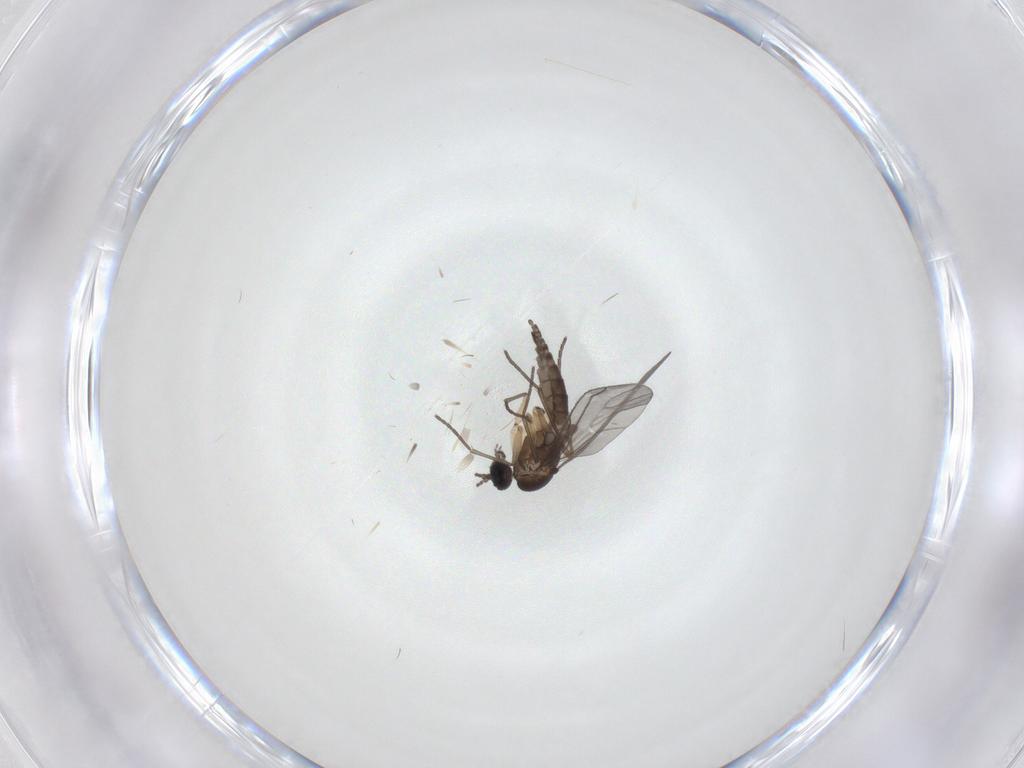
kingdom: Animalia
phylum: Arthropoda
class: Insecta
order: Diptera
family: Sciaridae
